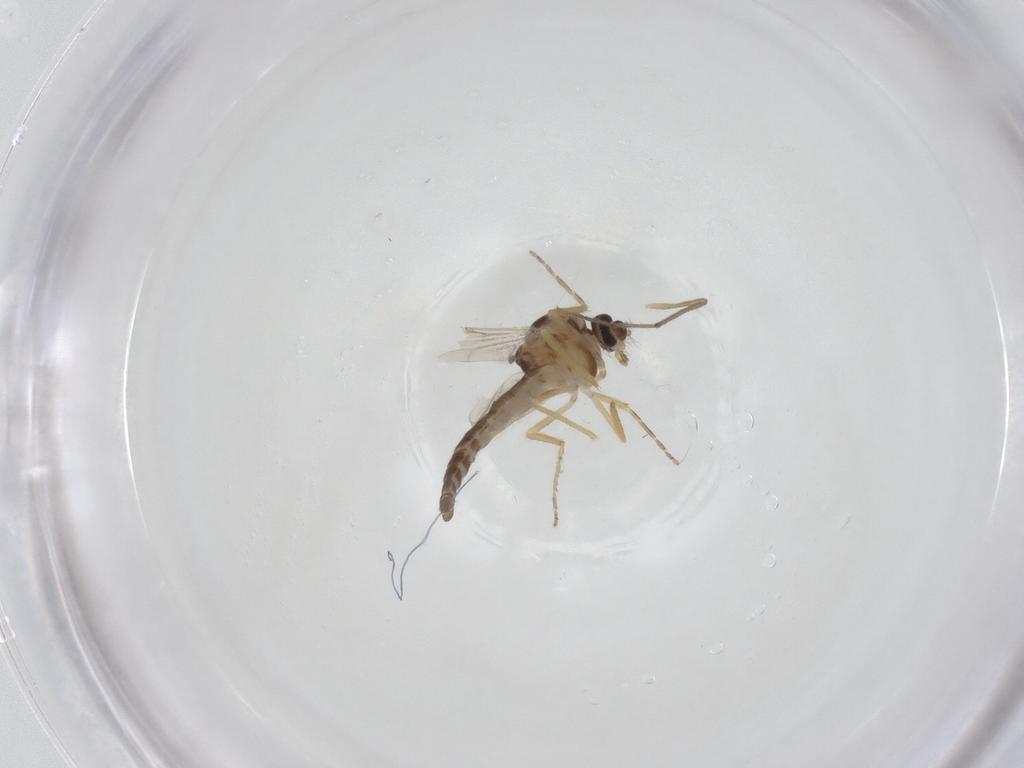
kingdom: Animalia
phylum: Arthropoda
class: Insecta
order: Diptera
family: Ceratopogonidae
